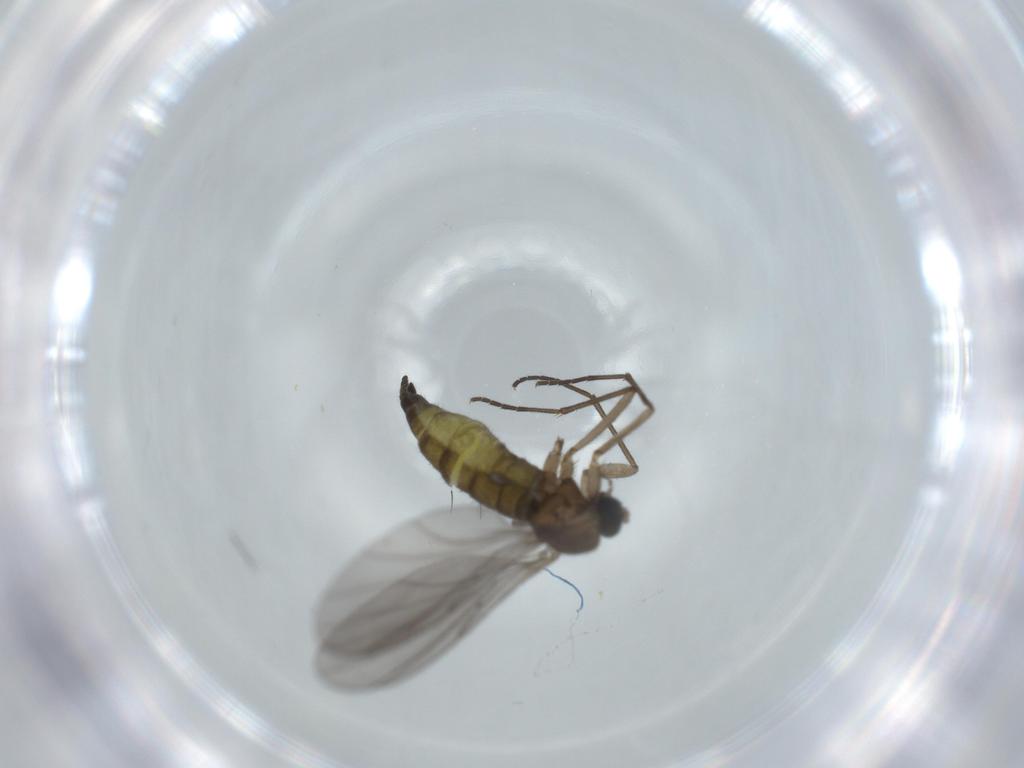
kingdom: Animalia
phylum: Arthropoda
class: Insecta
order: Diptera
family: Sciaridae
